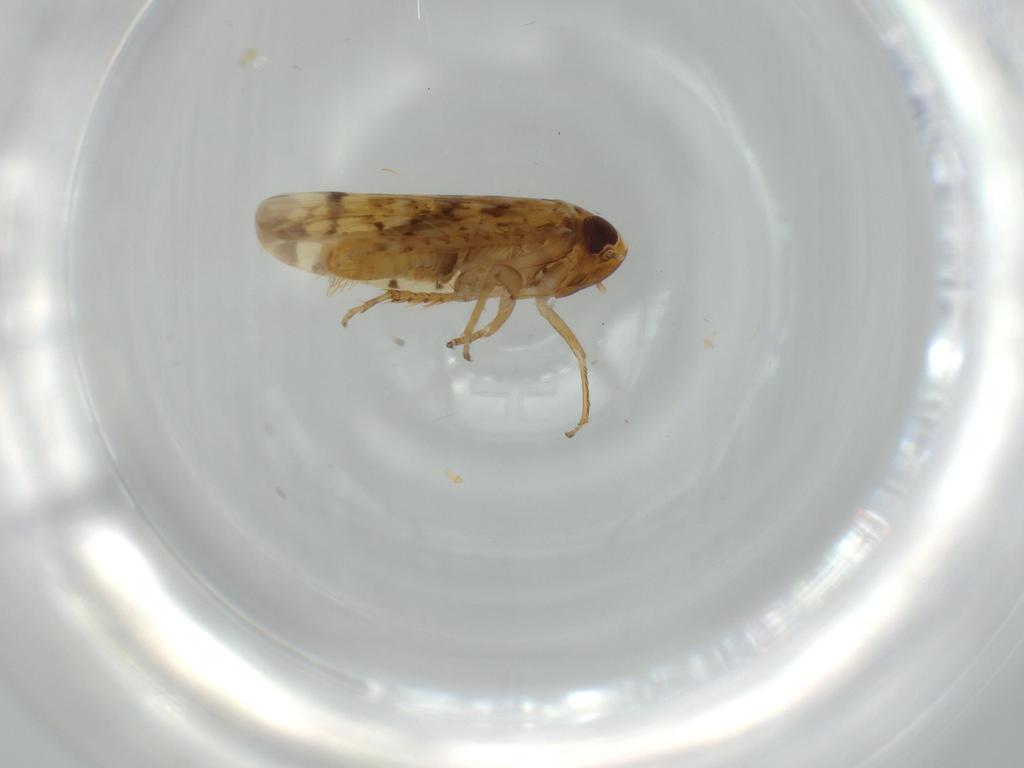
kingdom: Animalia
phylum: Arthropoda
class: Insecta
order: Hemiptera
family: Cicadellidae
